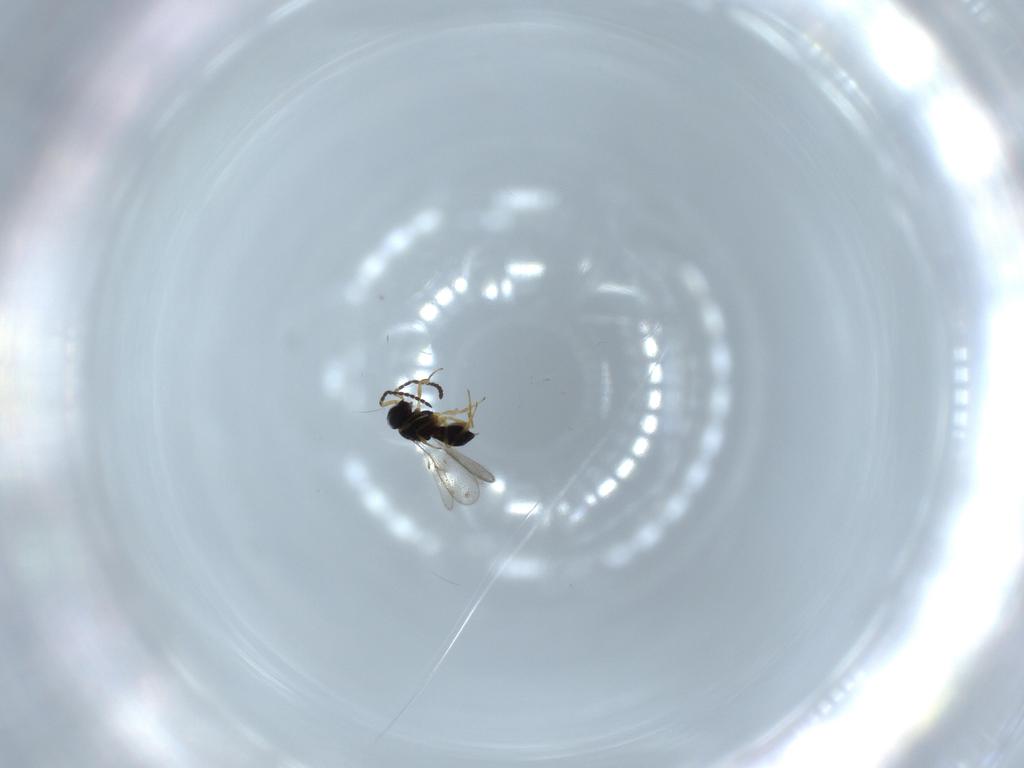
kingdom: Animalia
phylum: Arthropoda
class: Insecta
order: Hymenoptera
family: Scelionidae
